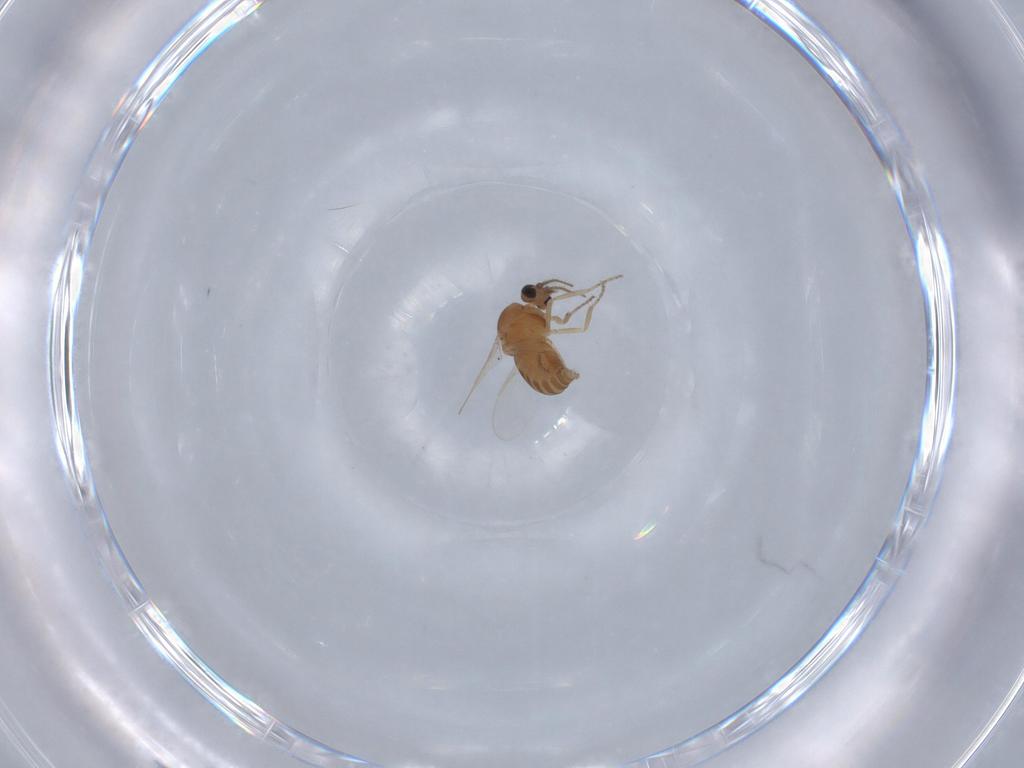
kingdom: Animalia
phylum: Arthropoda
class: Insecta
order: Diptera
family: Ceratopogonidae
